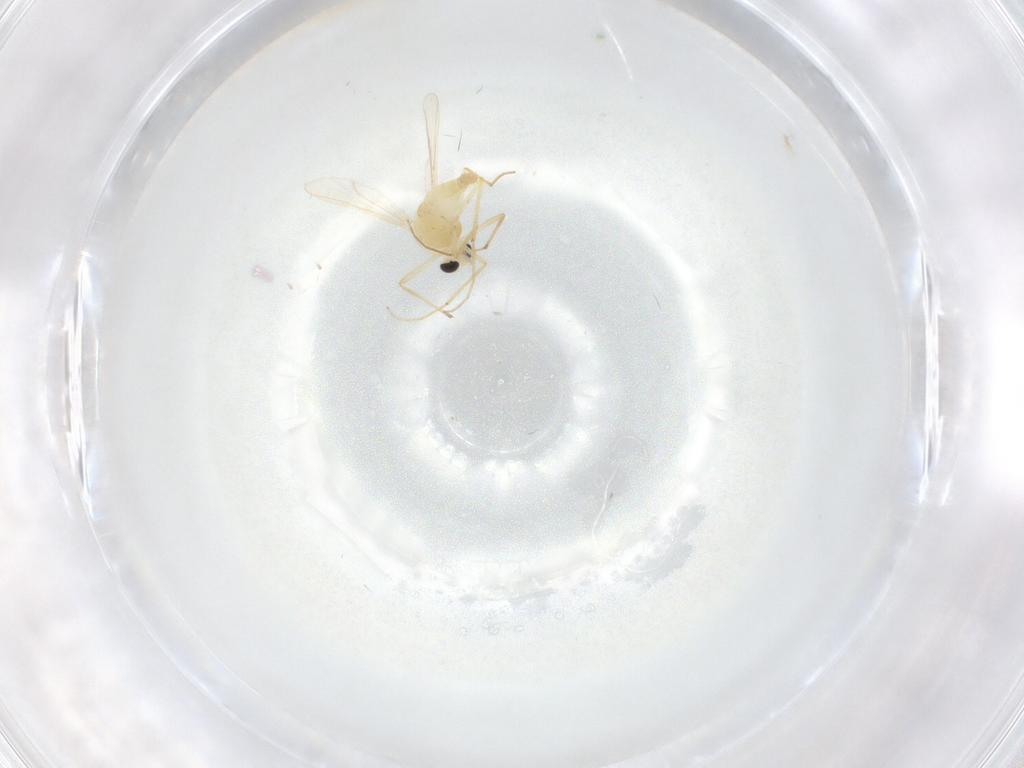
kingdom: Animalia
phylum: Arthropoda
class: Insecta
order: Diptera
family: Chironomidae
